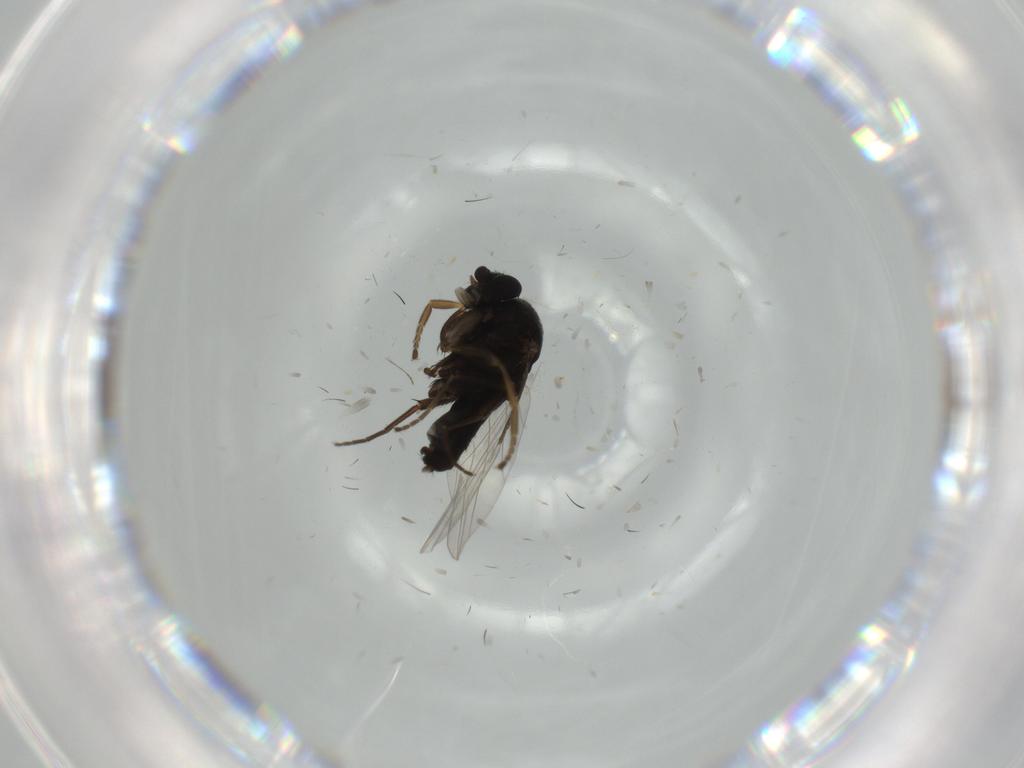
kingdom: Animalia
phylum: Arthropoda
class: Insecta
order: Diptera
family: Phoridae
